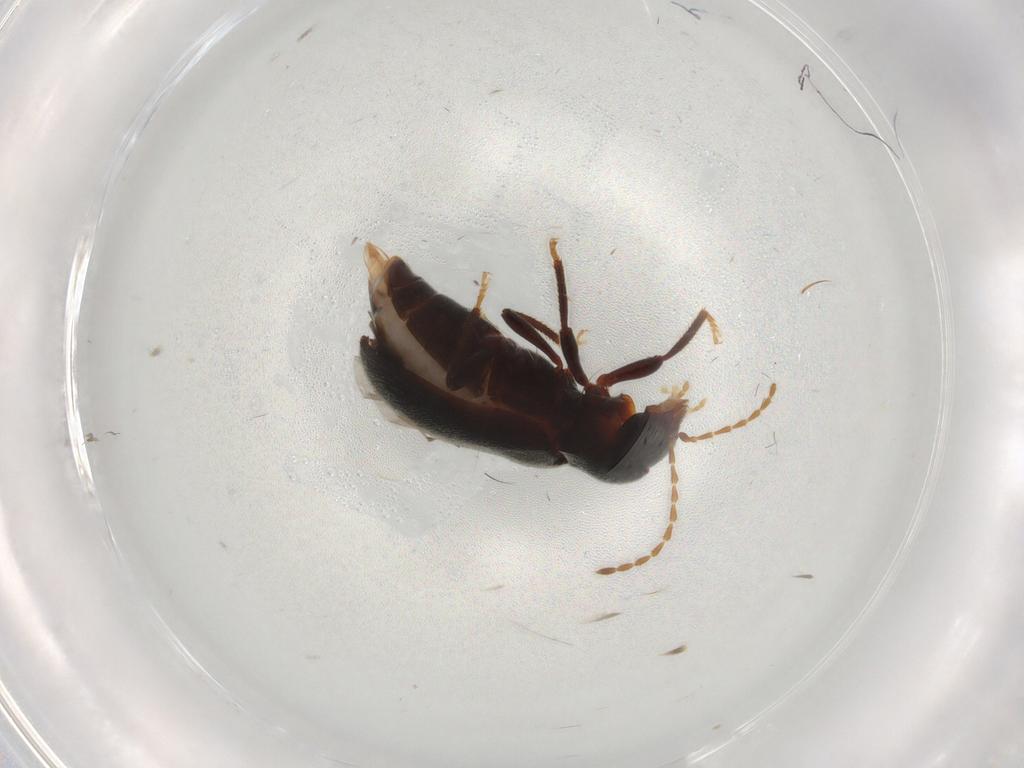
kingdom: Animalia
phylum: Arthropoda
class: Insecta
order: Coleoptera
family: Ptilodactylidae
